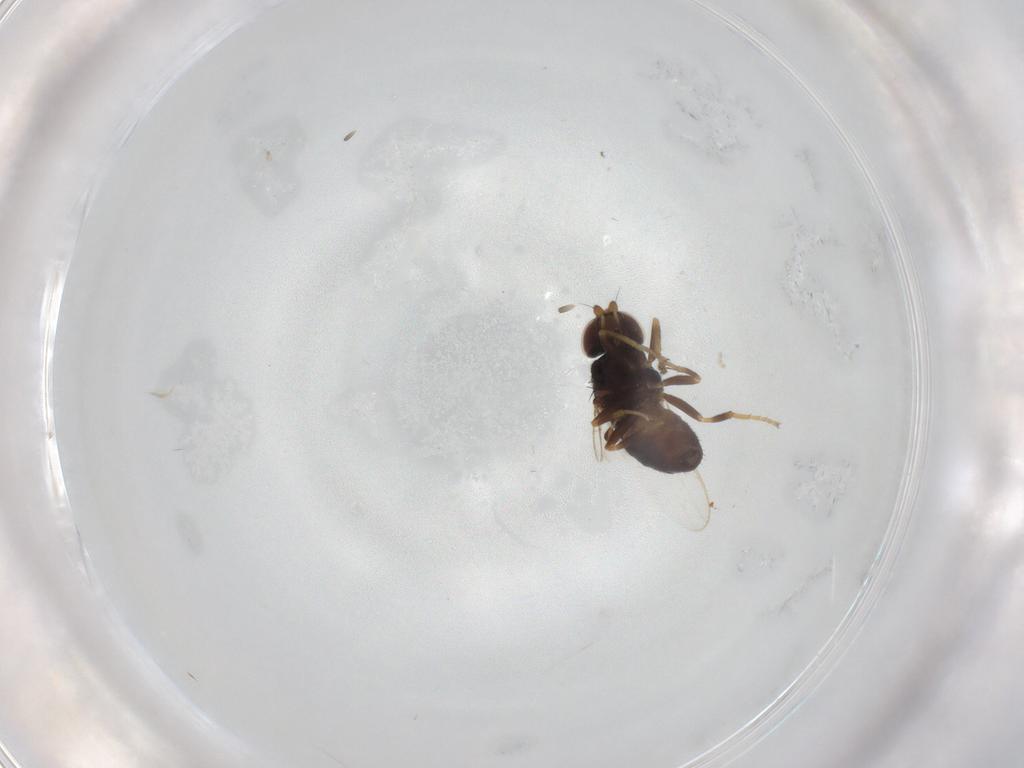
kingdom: Animalia
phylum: Arthropoda
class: Insecta
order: Diptera
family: Chloropidae
